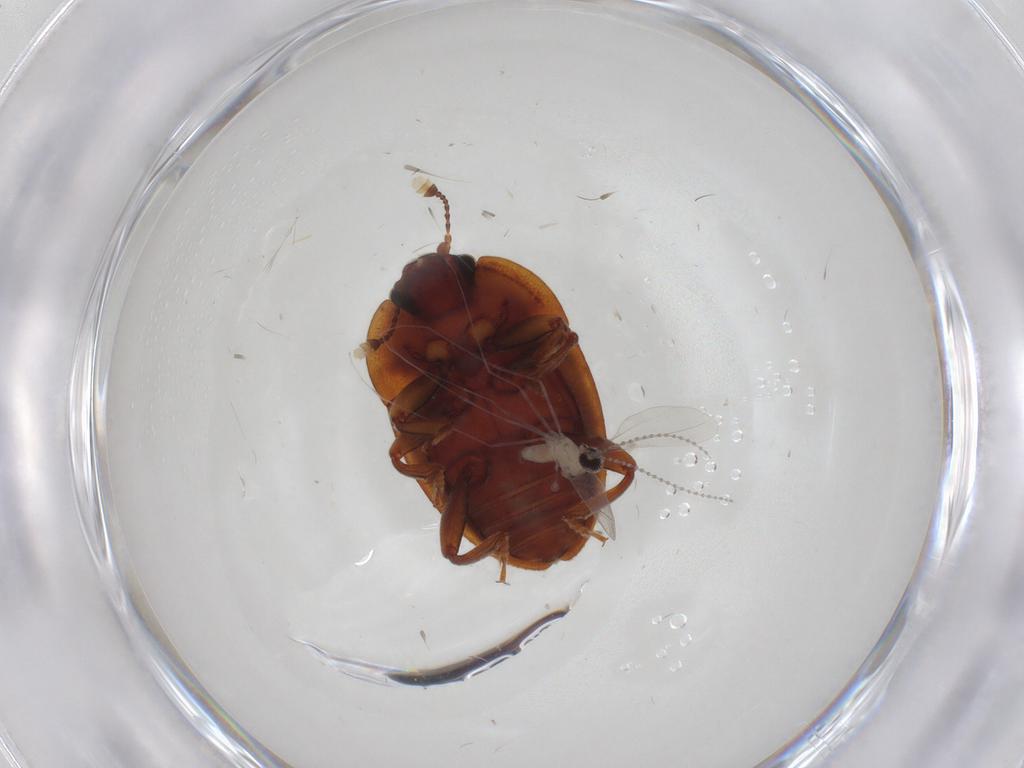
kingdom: Animalia
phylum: Arthropoda
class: Insecta
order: Diptera
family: Cecidomyiidae
